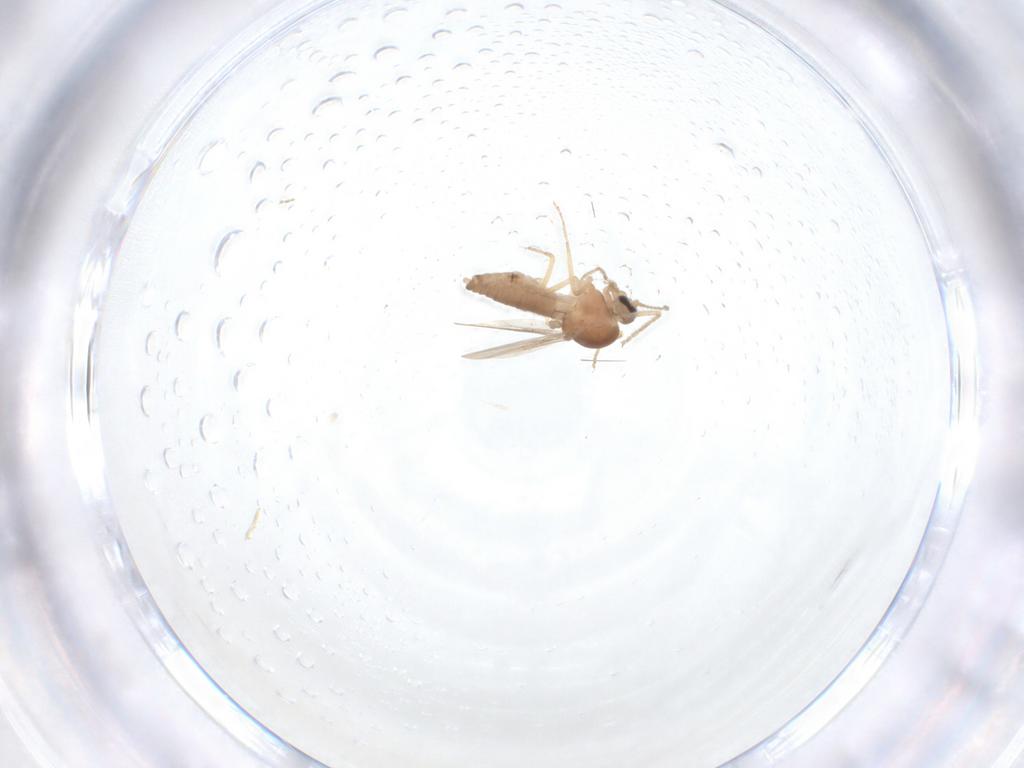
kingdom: Animalia
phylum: Arthropoda
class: Insecta
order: Diptera
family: Ceratopogonidae
